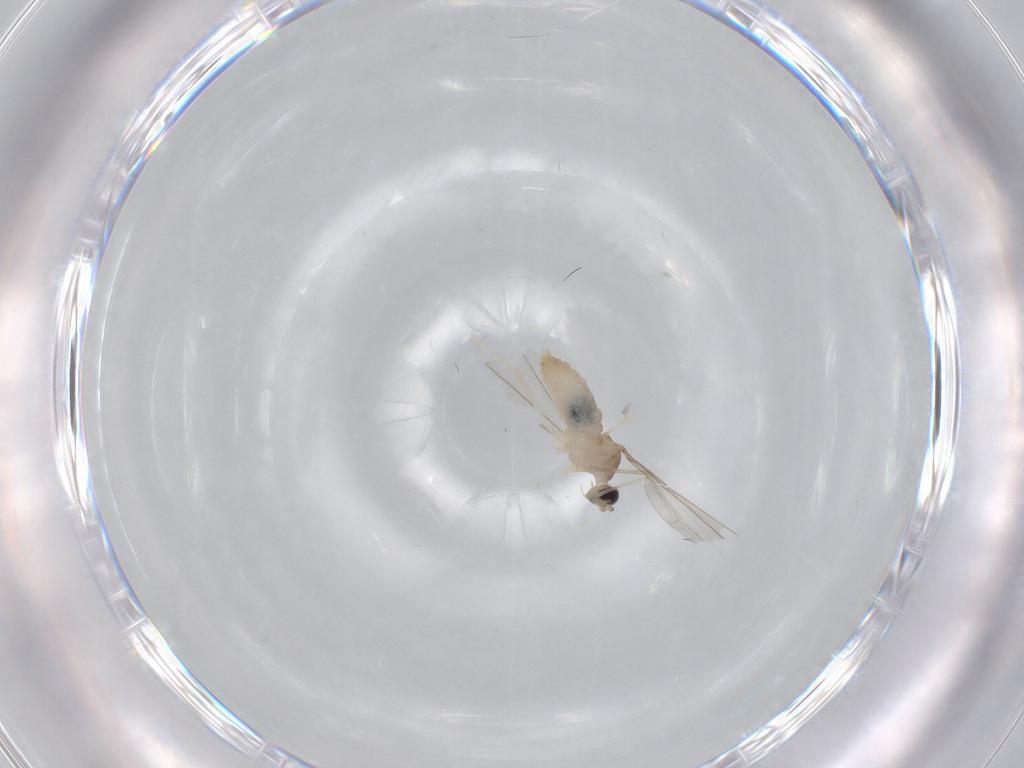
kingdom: Animalia
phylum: Arthropoda
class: Insecta
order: Diptera
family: Cecidomyiidae
